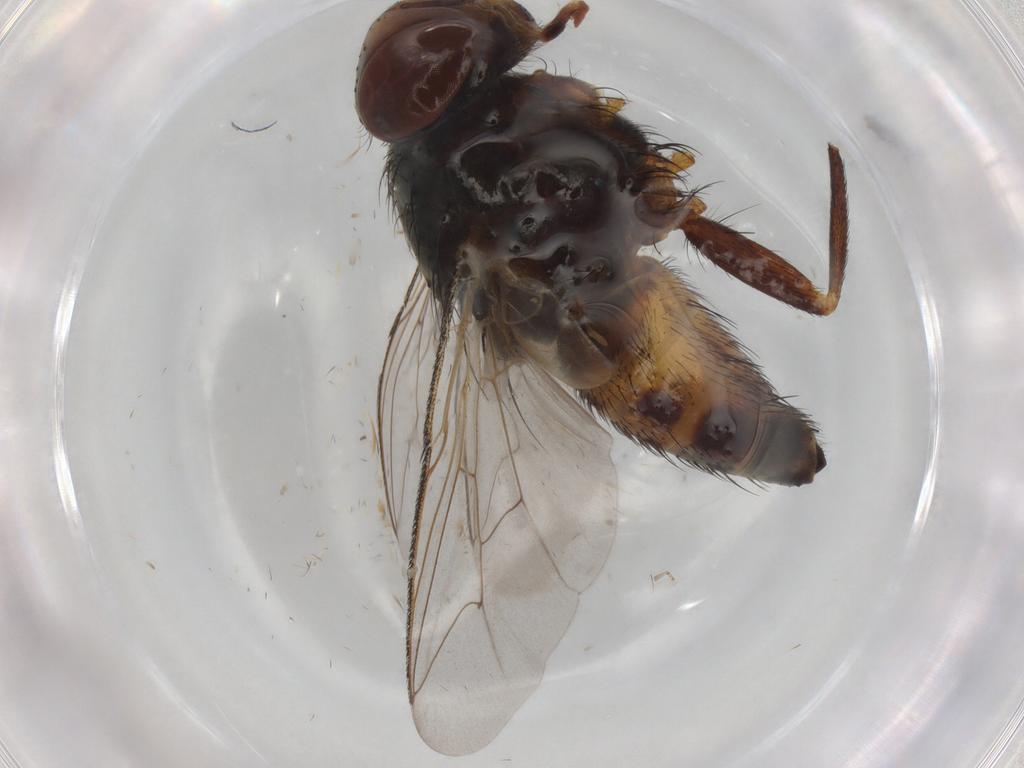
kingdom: Animalia
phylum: Arthropoda
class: Insecta
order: Diptera
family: Sarcophagidae
